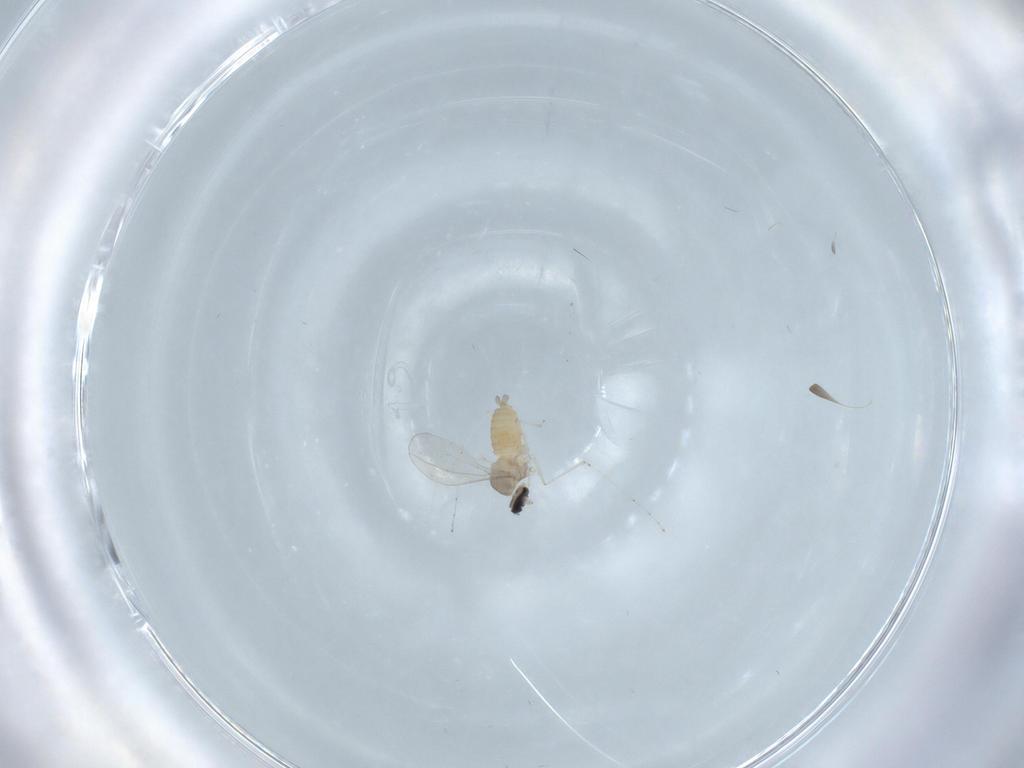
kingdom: Animalia
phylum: Arthropoda
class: Insecta
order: Diptera
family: Cecidomyiidae
